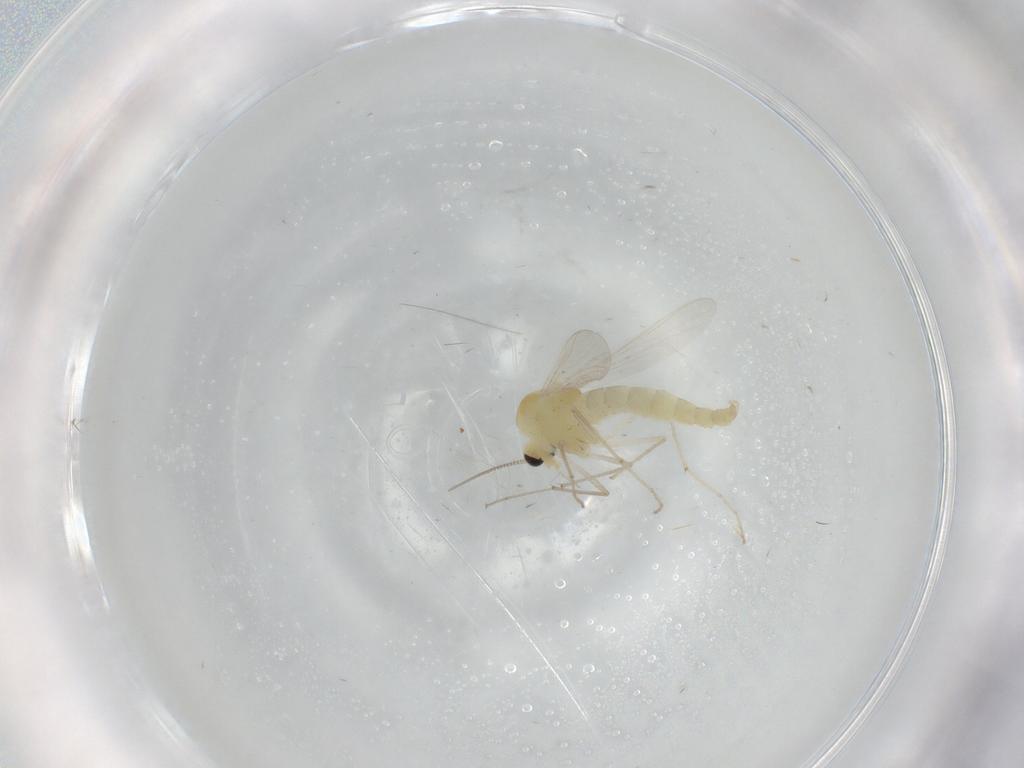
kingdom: Animalia
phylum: Arthropoda
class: Insecta
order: Diptera
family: Chironomidae
